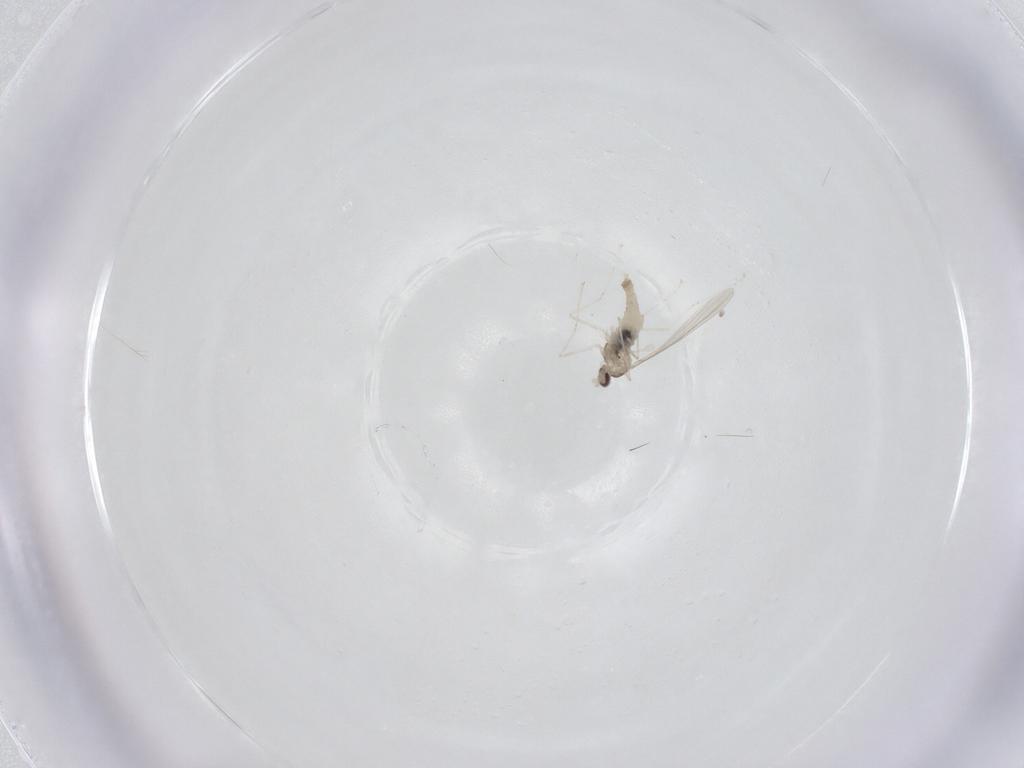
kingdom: Animalia
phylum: Arthropoda
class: Insecta
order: Diptera
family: Cecidomyiidae
